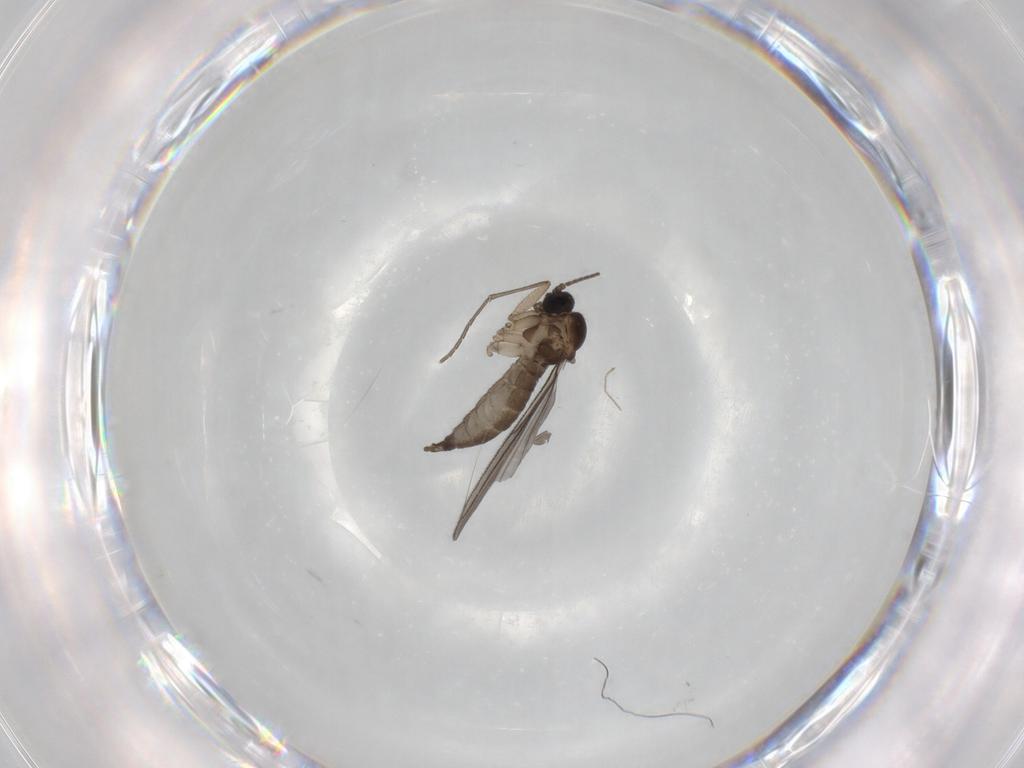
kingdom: Animalia
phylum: Arthropoda
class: Insecta
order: Diptera
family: Sciaridae
